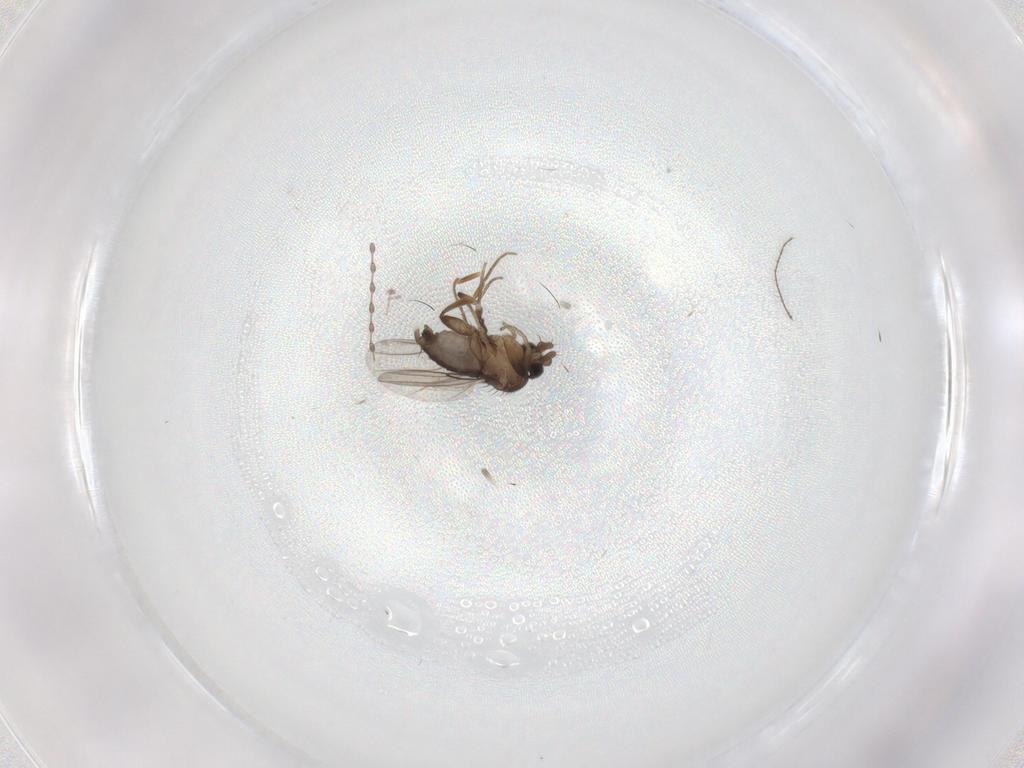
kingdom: Animalia
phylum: Arthropoda
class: Insecta
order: Diptera
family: Cecidomyiidae
